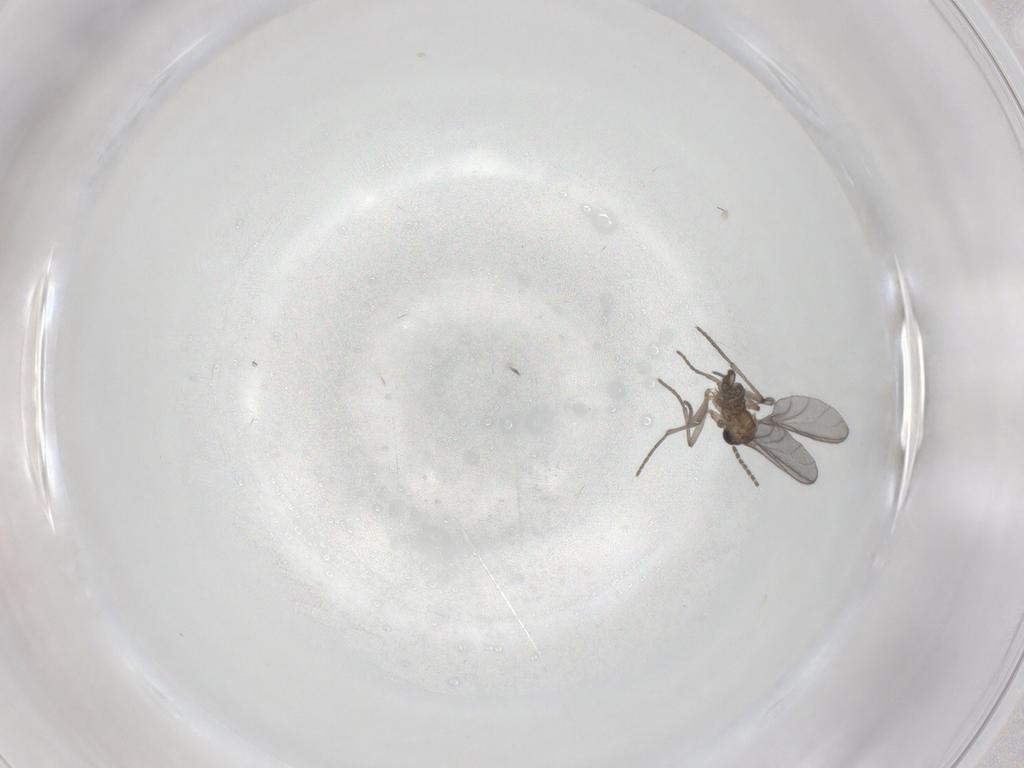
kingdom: Animalia
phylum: Arthropoda
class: Insecta
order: Diptera
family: Sciaridae
